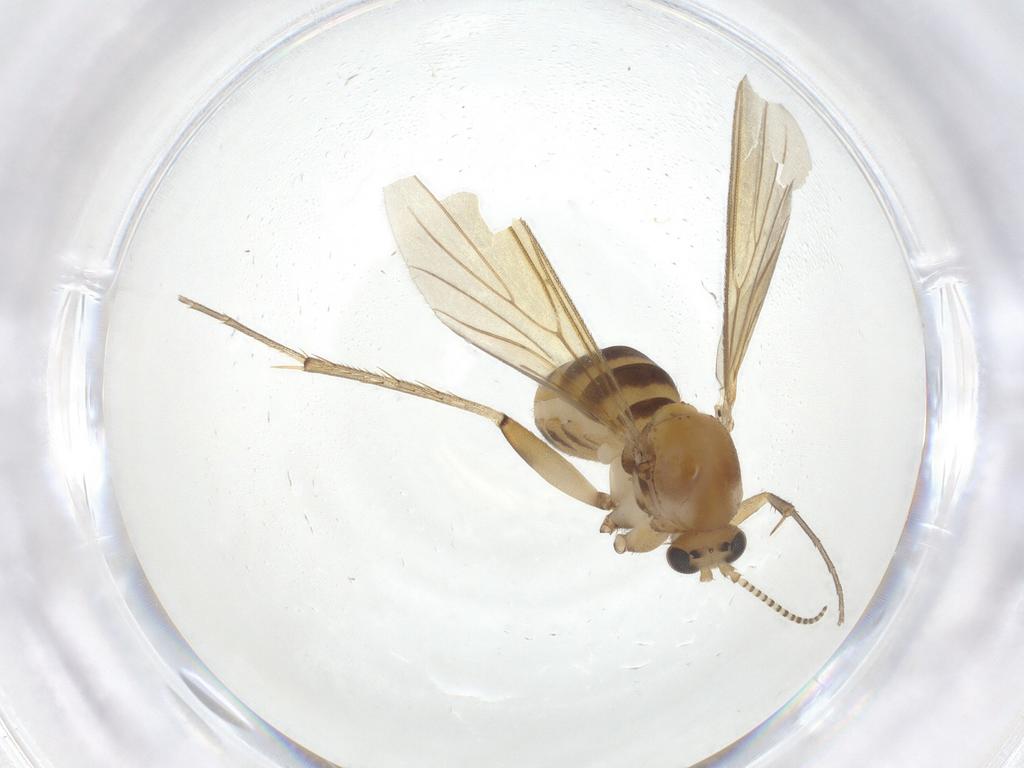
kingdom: Animalia
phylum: Arthropoda
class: Insecta
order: Diptera
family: Mycetophilidae
